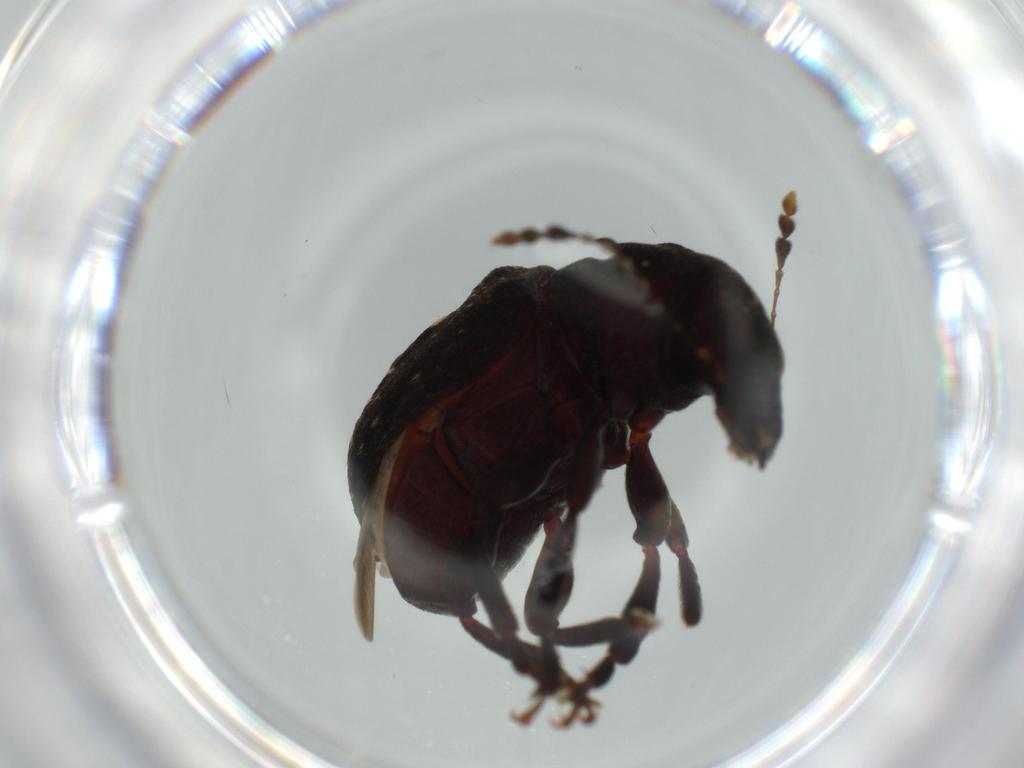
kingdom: Animalia
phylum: Arthropoda
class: Insecta
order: Coleoptera
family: Anthribidae
